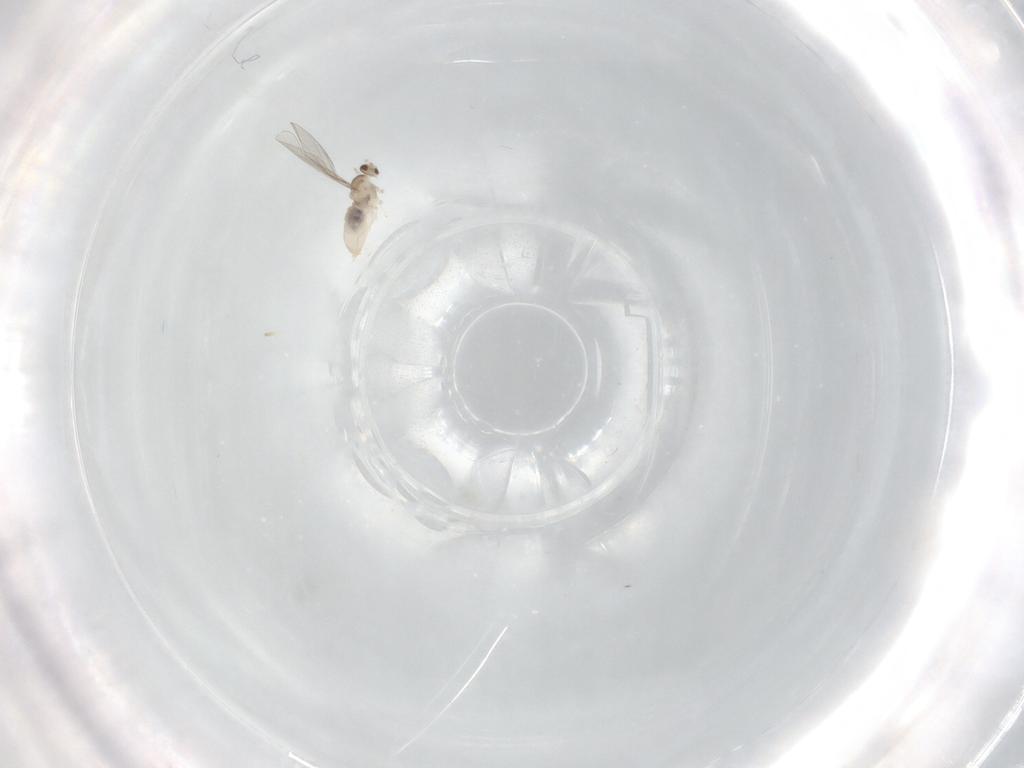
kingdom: Animalia
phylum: Arthropoda
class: Insecta
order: Diptera
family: Cecidomyiidae
